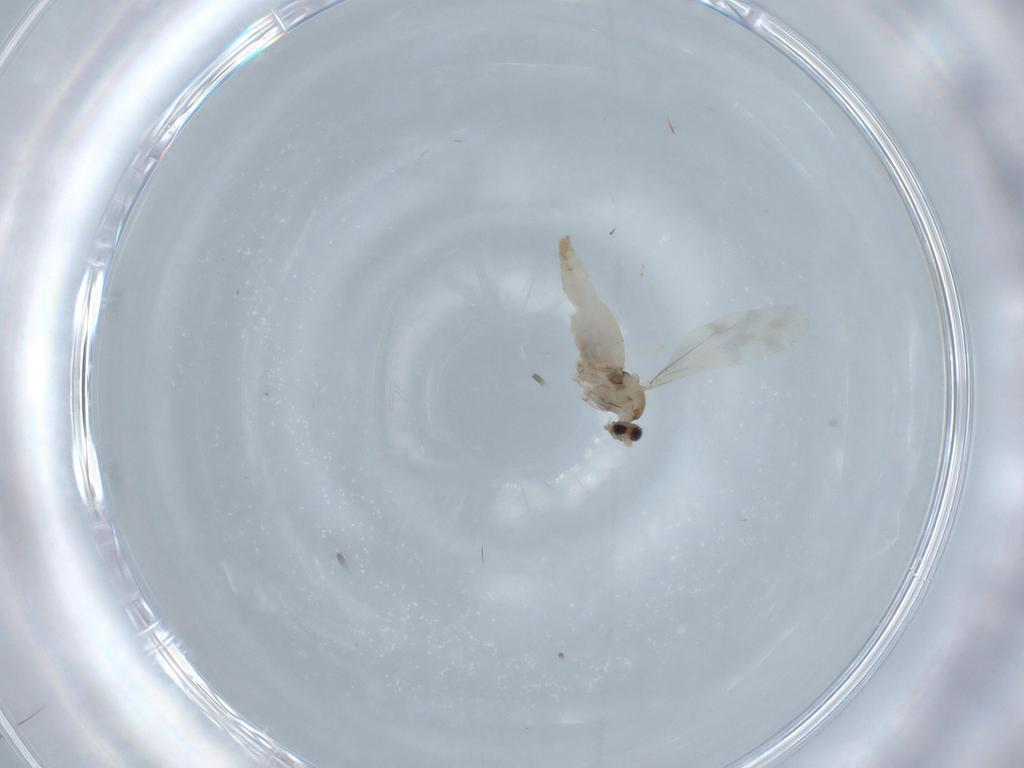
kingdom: Animalia
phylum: Arthropoda
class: Insecta
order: Diptera
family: Cecidomyiidae
